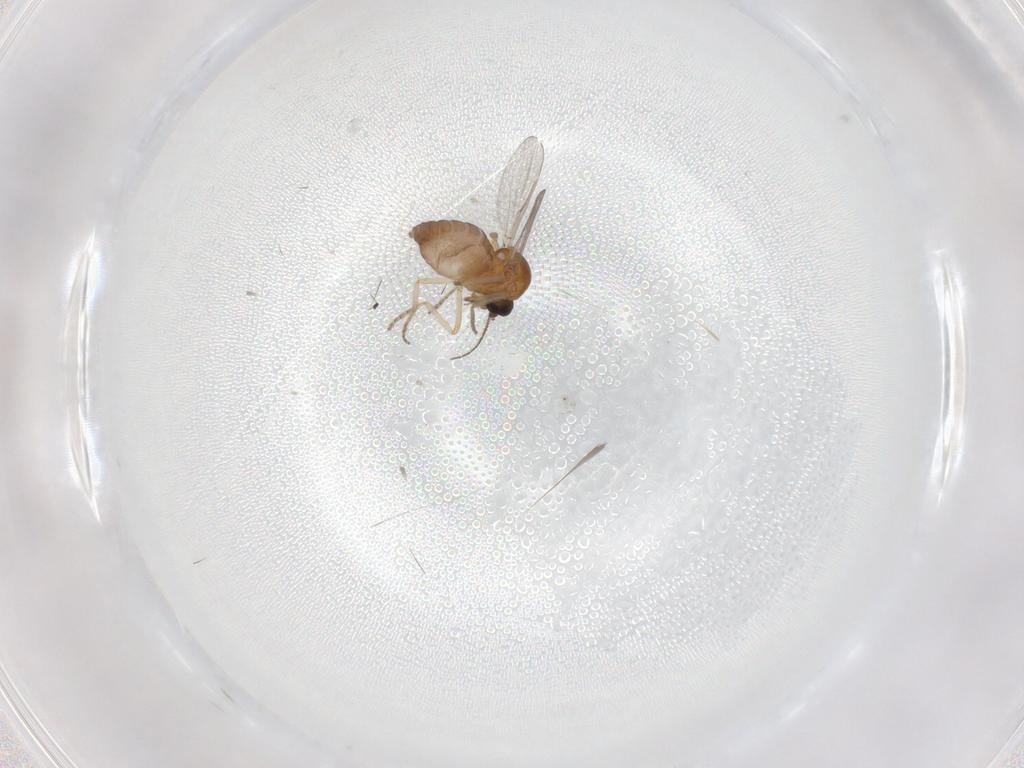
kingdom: Animalia
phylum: Arthropoda
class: Insecta
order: Diptera
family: Ceratopogonidae
